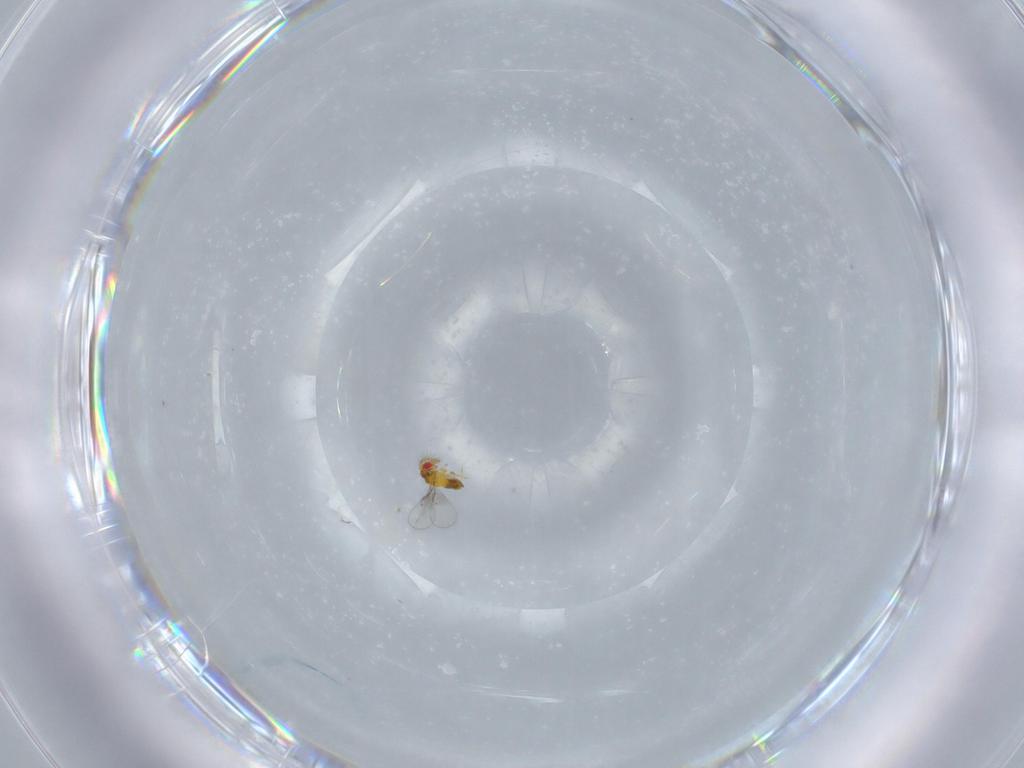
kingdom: Animalia
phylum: Arthropoda
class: Insecta
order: Hymenoptera
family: Trichogrammatidae
